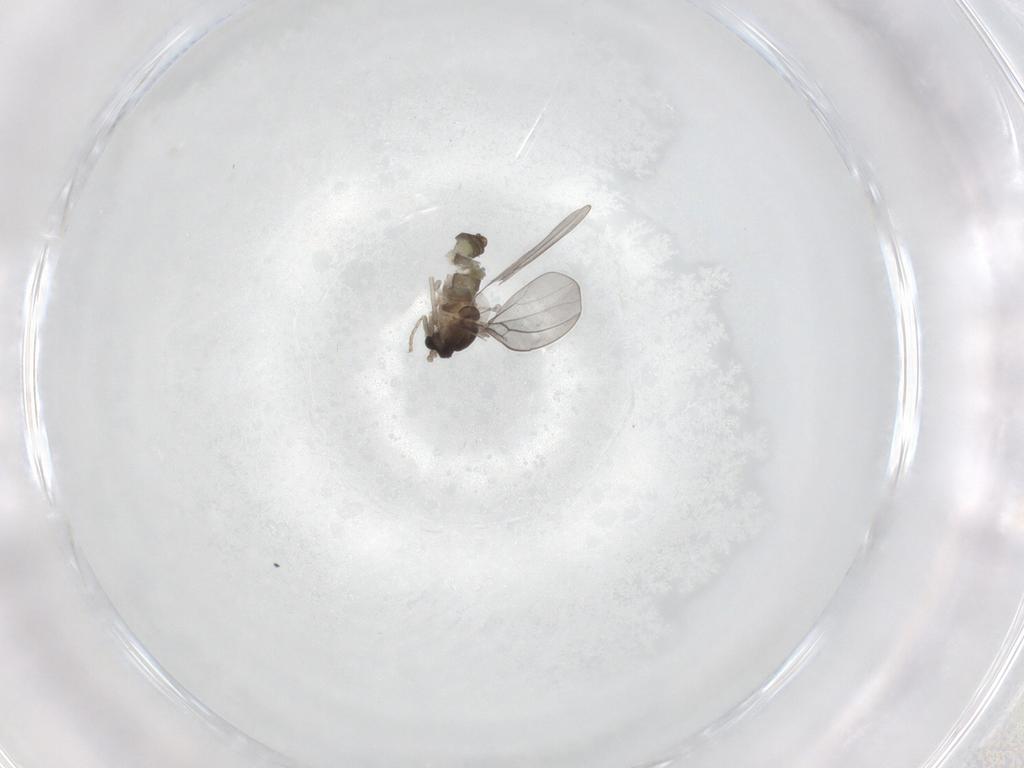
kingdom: Animalia
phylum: Arthropoda
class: Insecta
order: Diptera
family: Cecidomyiidae
